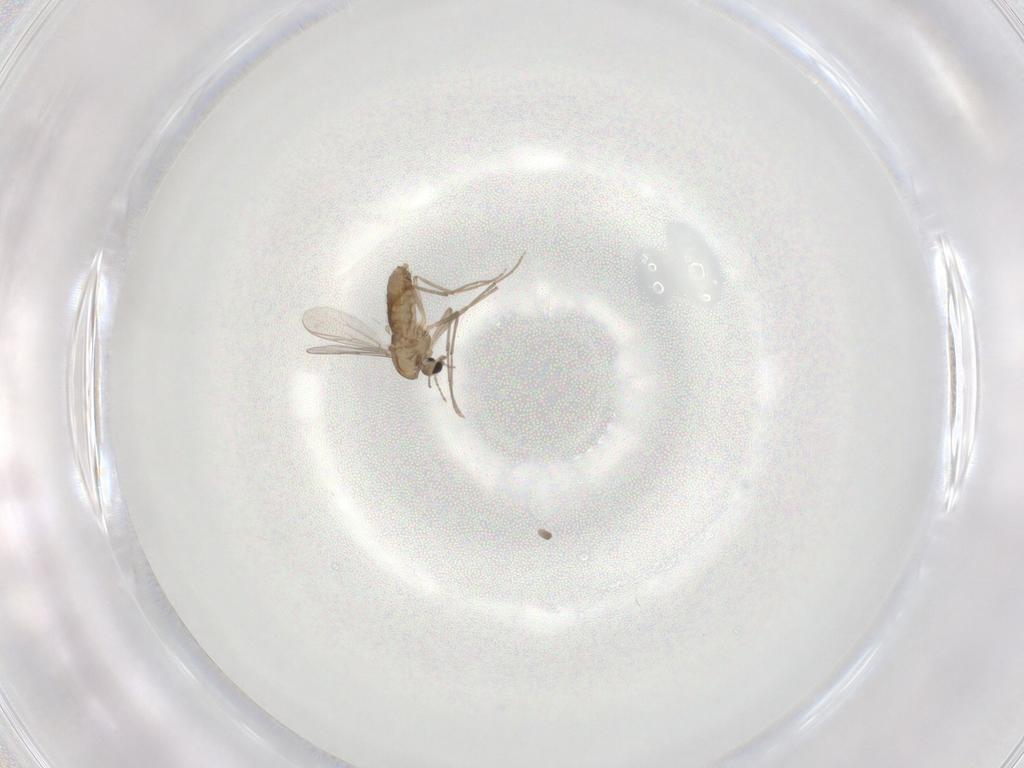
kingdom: Animalia
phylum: Arthropoda
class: Insecta
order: Diptera
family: Chironomidae
